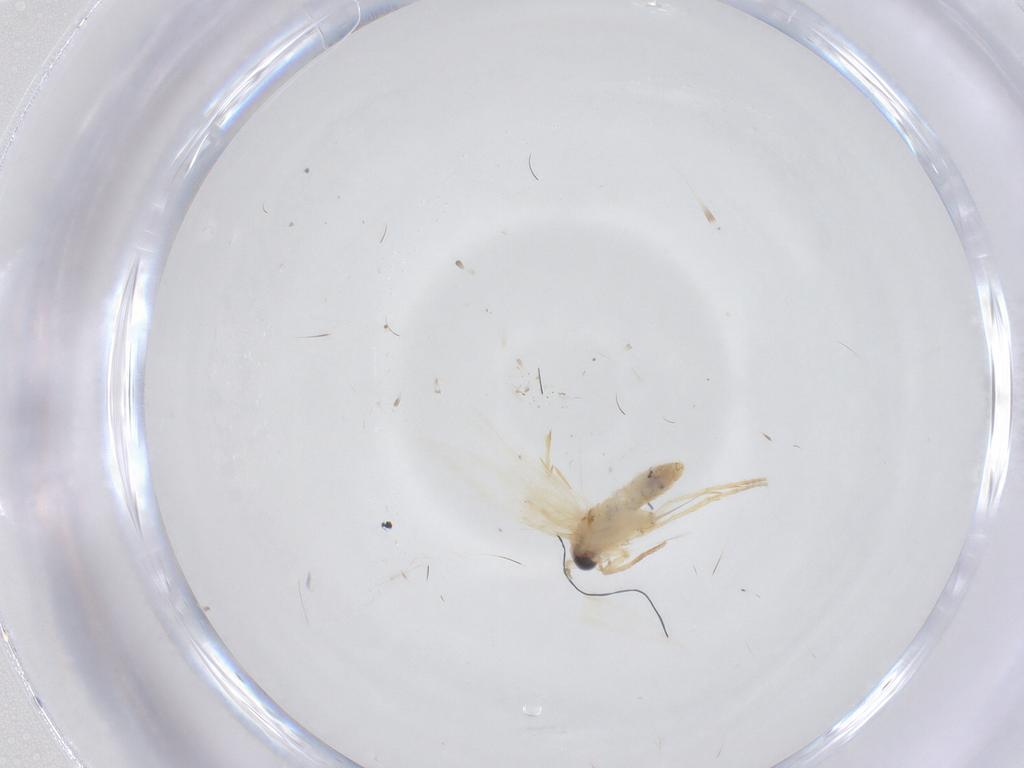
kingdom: Animalia
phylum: Arthropoda
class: Insecta
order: Lepidoptera
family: Nepticulidae
